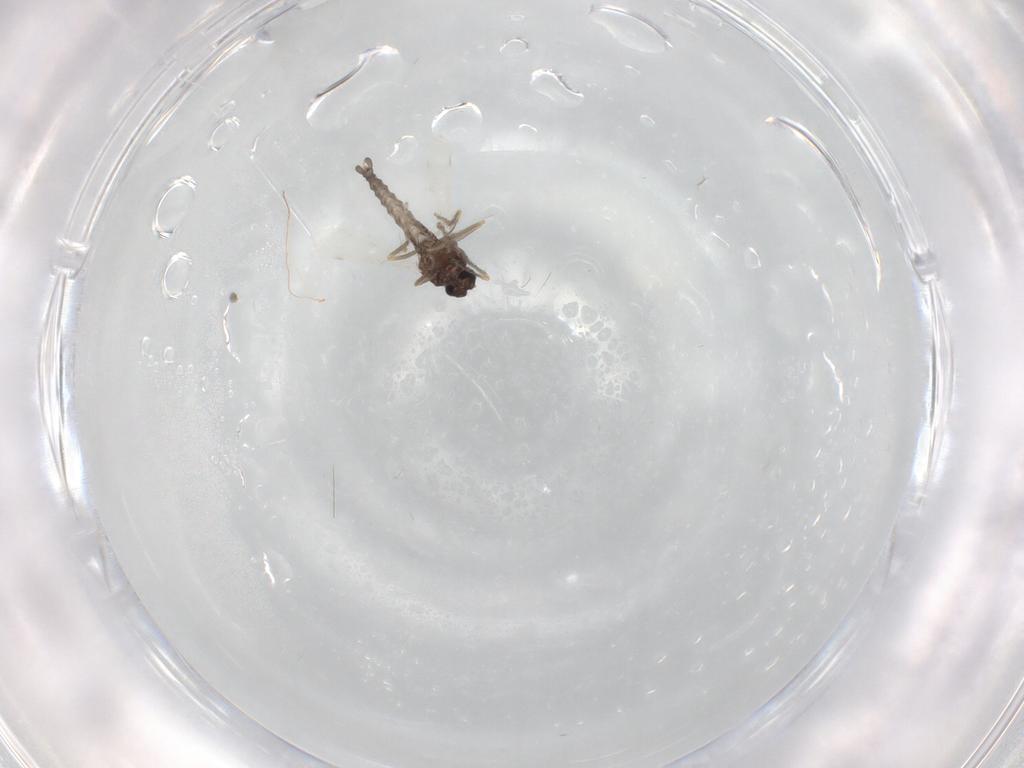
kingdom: Animalia
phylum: Arthropoda
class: Insecta
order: Diptera
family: Ceratopogonidae
